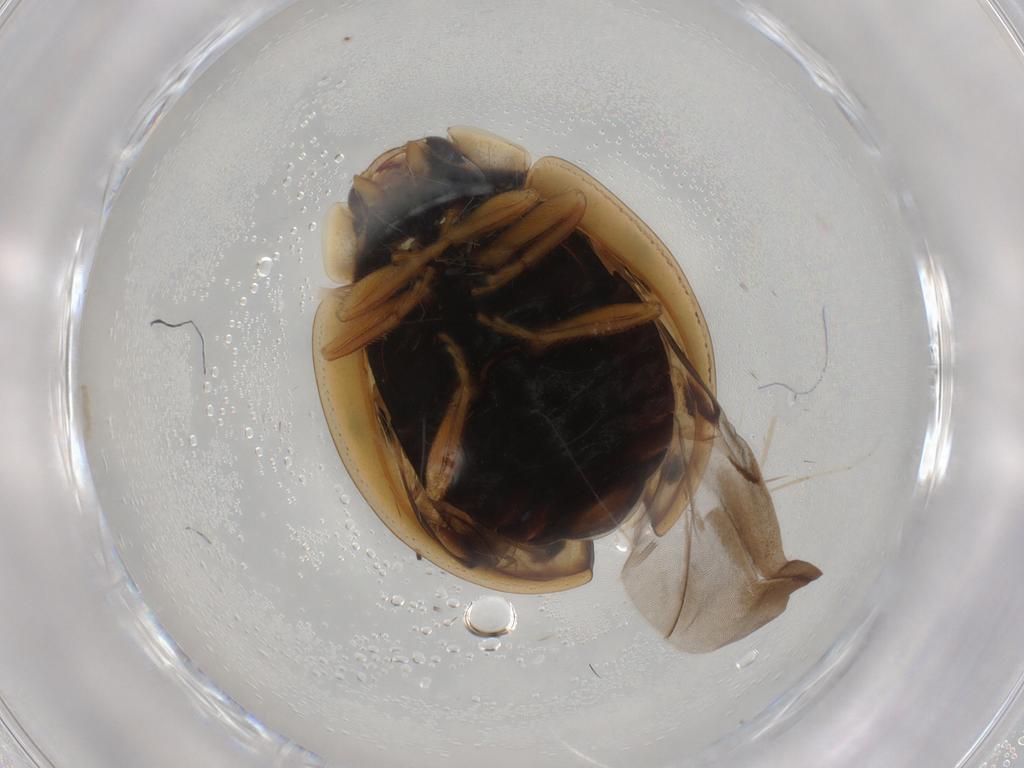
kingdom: Animalia
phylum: Arthropoda
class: Insecta
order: Coleoptera
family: Coccinellidae
